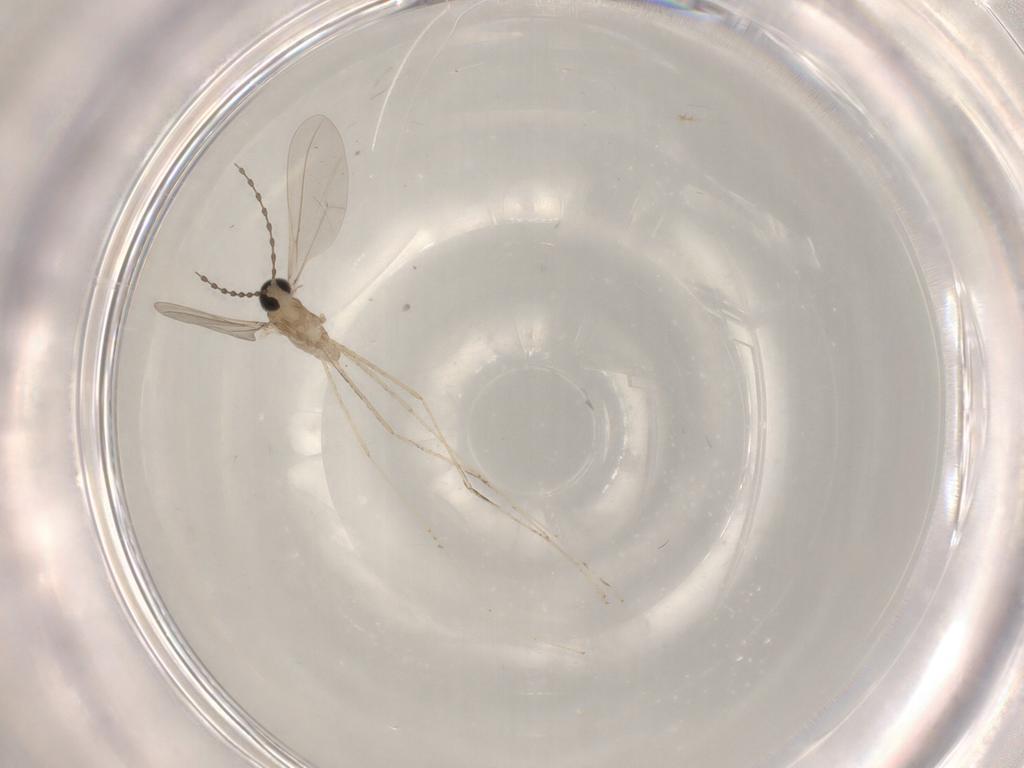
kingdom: Animalia
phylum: Arthropoda
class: Insecta
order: Diptera
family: Cecidomyiidae
